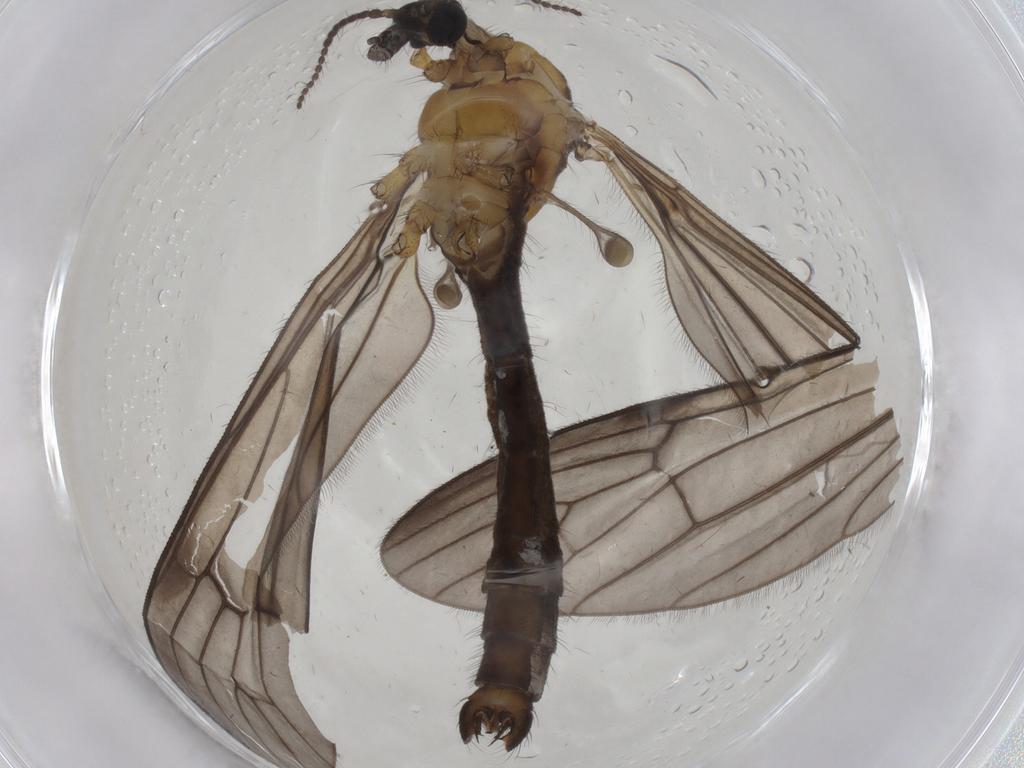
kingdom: Animalia
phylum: Arthropoda
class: Insecta
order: Diptera
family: Limoniidae
